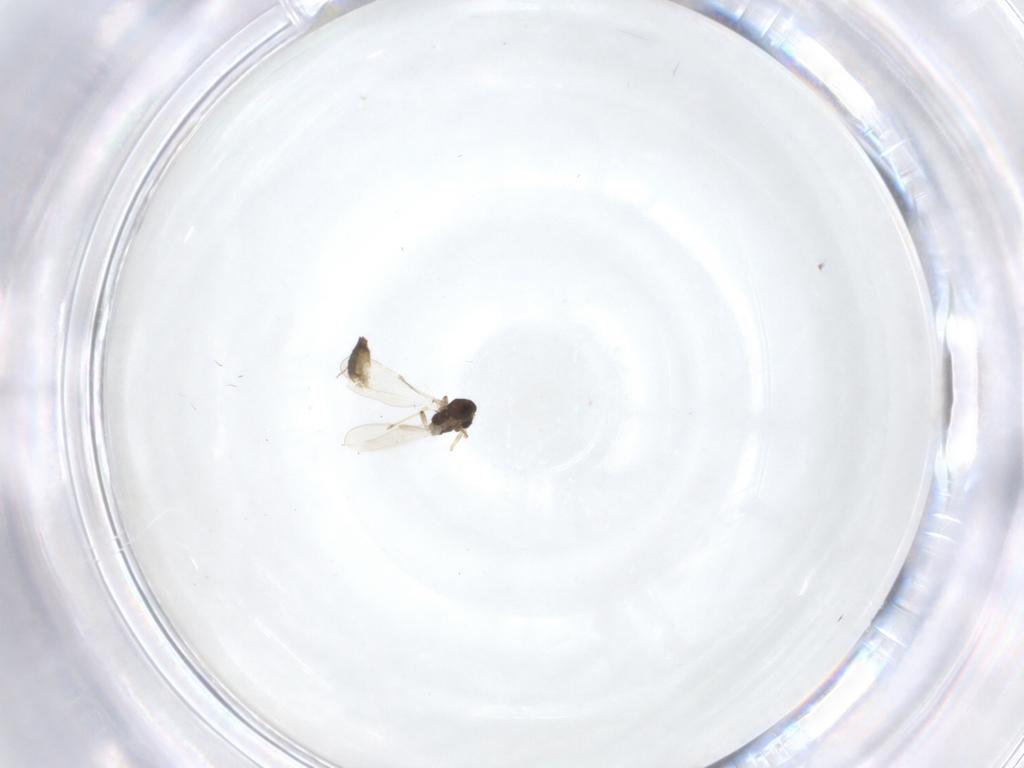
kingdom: Animalia
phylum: Arthropoda
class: Insecta
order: Diptera
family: Chironomidae
